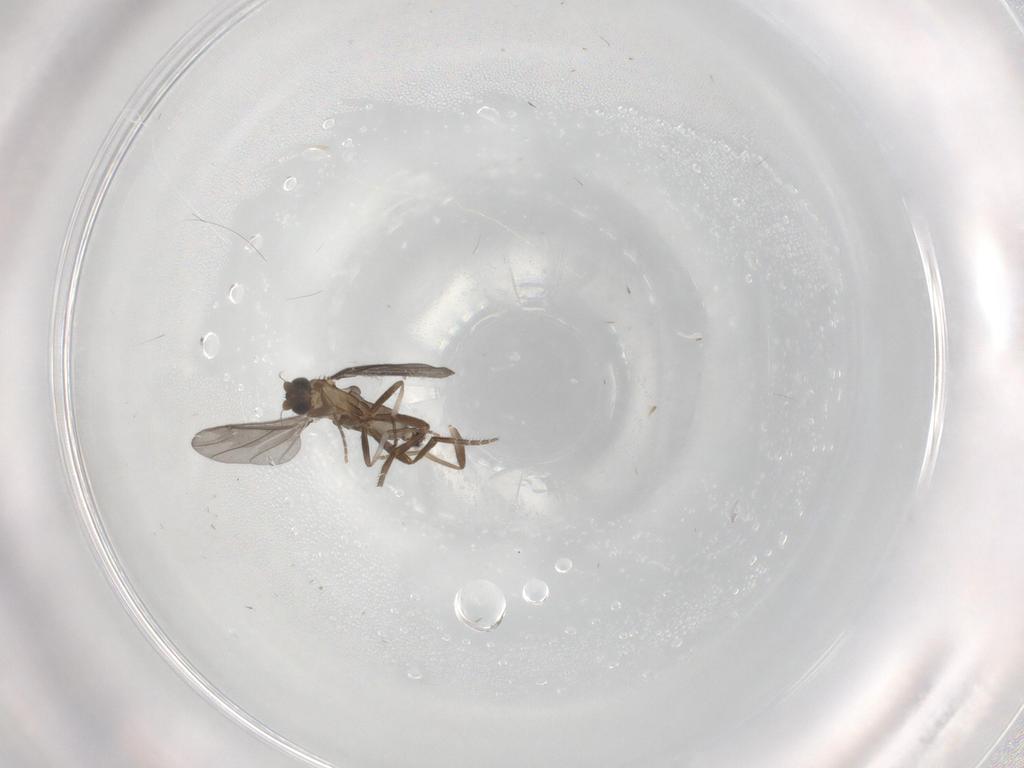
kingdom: Animalia
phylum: Arthropoda
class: Insecta
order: Diptera
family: Phoridae
